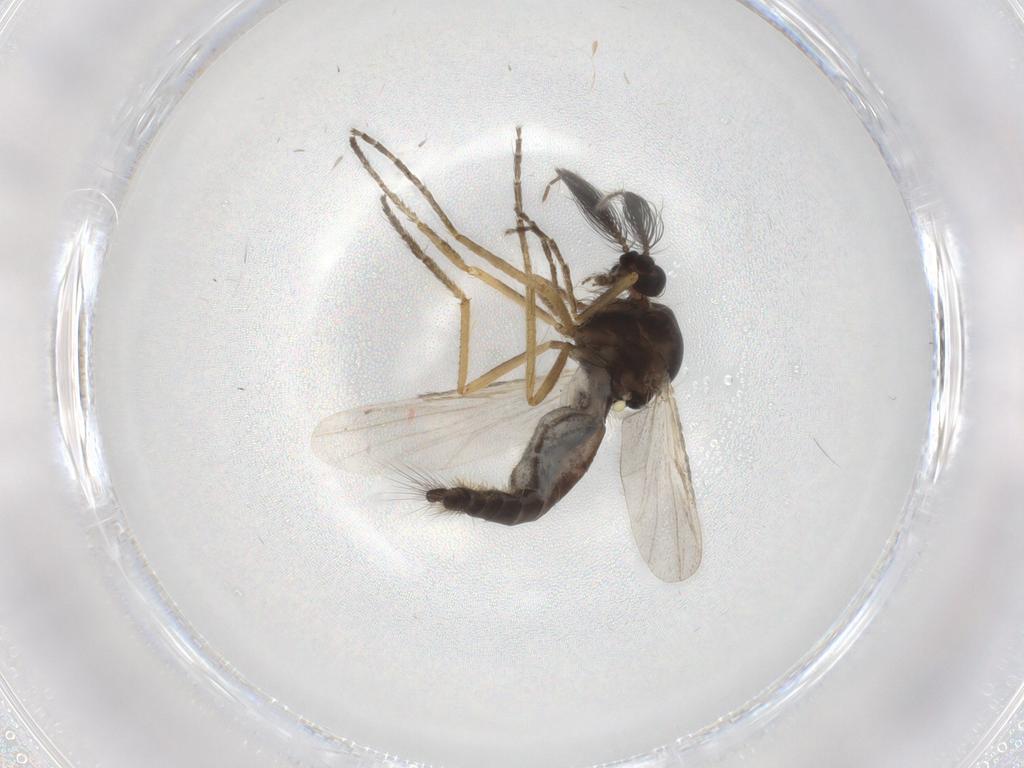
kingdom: Animalia
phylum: Arthropoda
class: Insecta
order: Diptera
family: Ceratopogonidae
